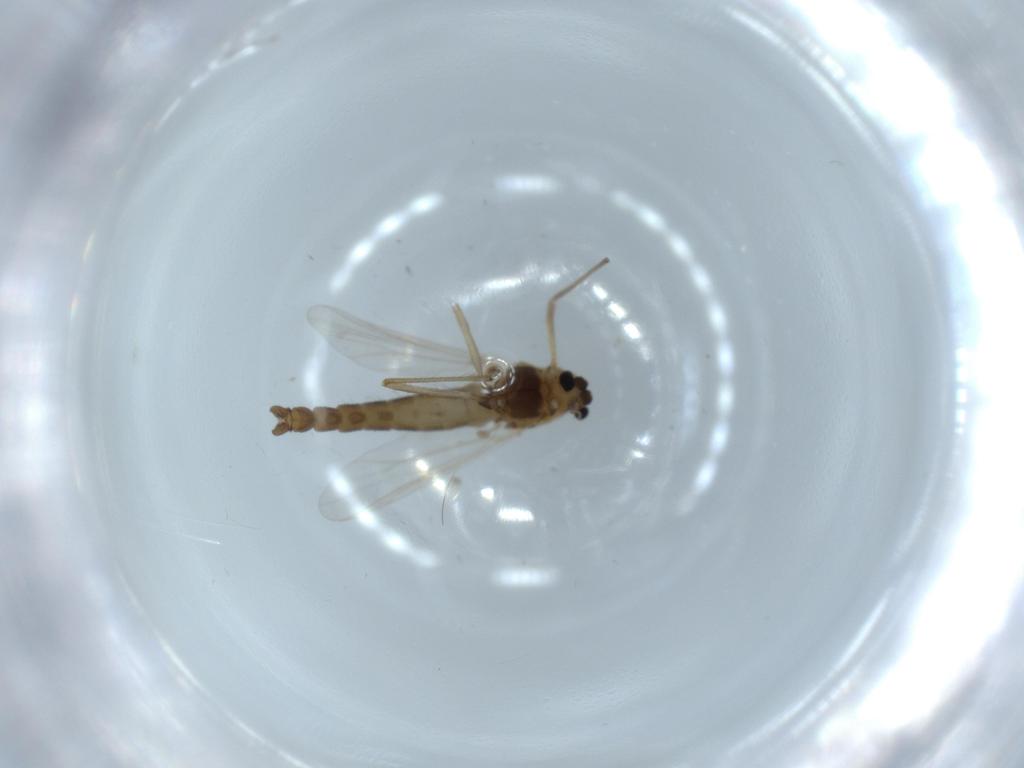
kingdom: Animalia
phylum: Arthropoda
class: Insecta
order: Diptera
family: Chironomidae
